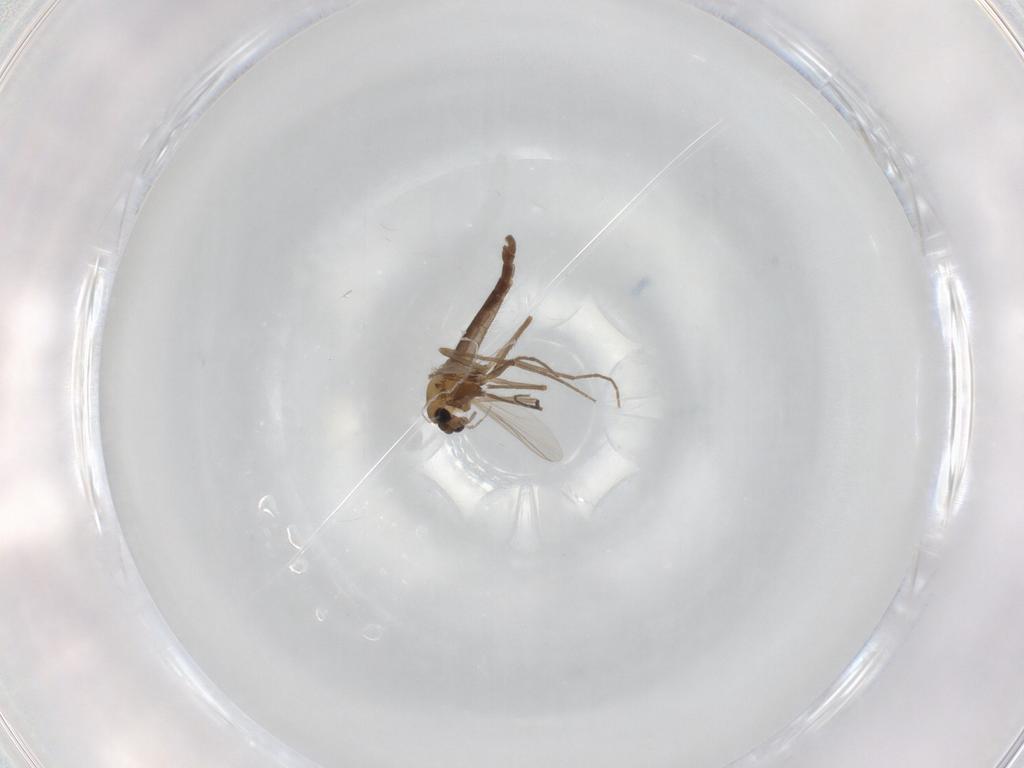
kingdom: Animalia
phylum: Arthropoda
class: Insecta
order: Diptera
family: Chironomidae
